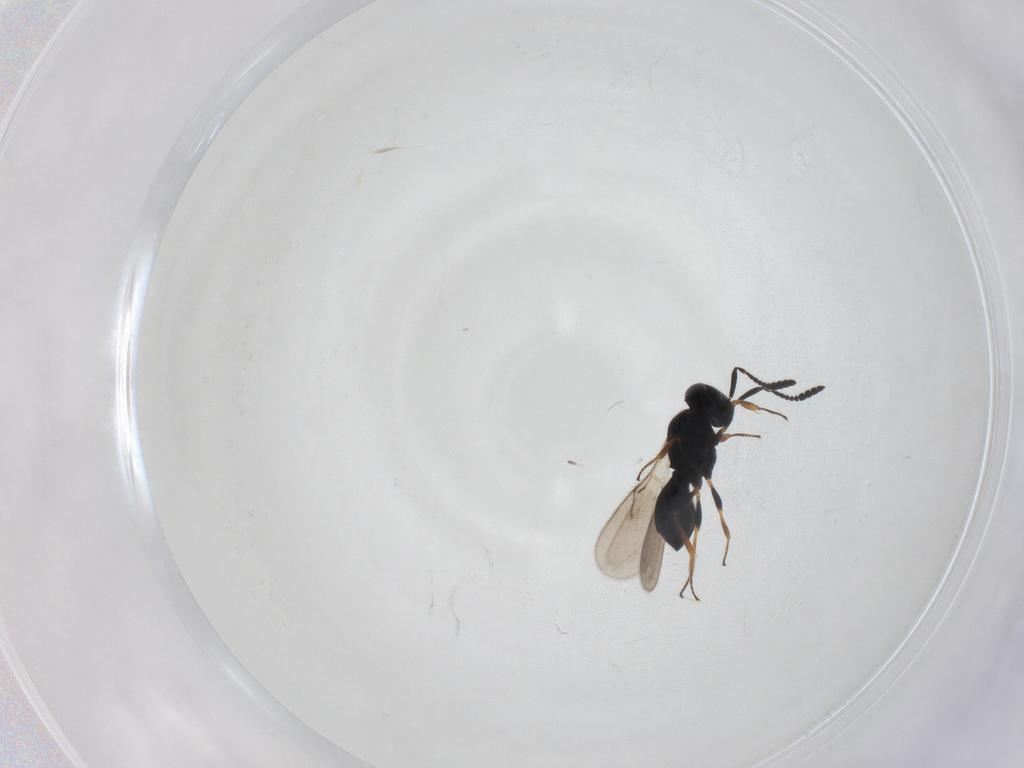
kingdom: Animalia
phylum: Arthropoda
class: Insecta
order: Hymenoptera
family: Scelionidae
